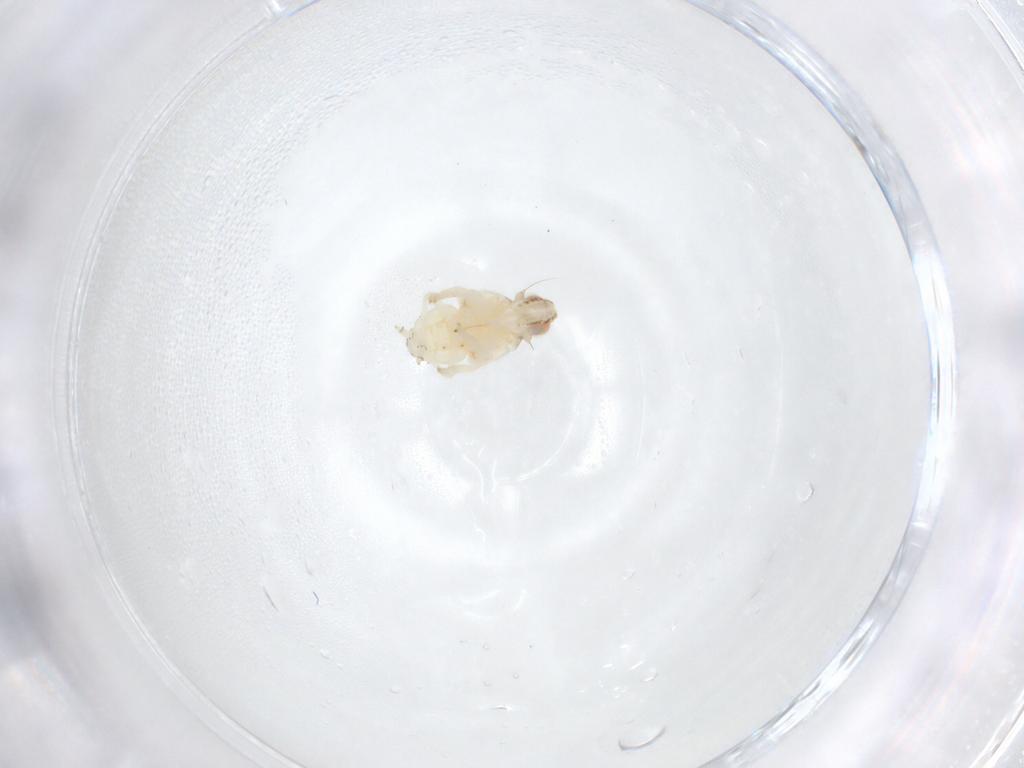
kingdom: Animalia
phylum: Arthropoda
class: Insecta
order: Hemiptera
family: Nogodinidae
